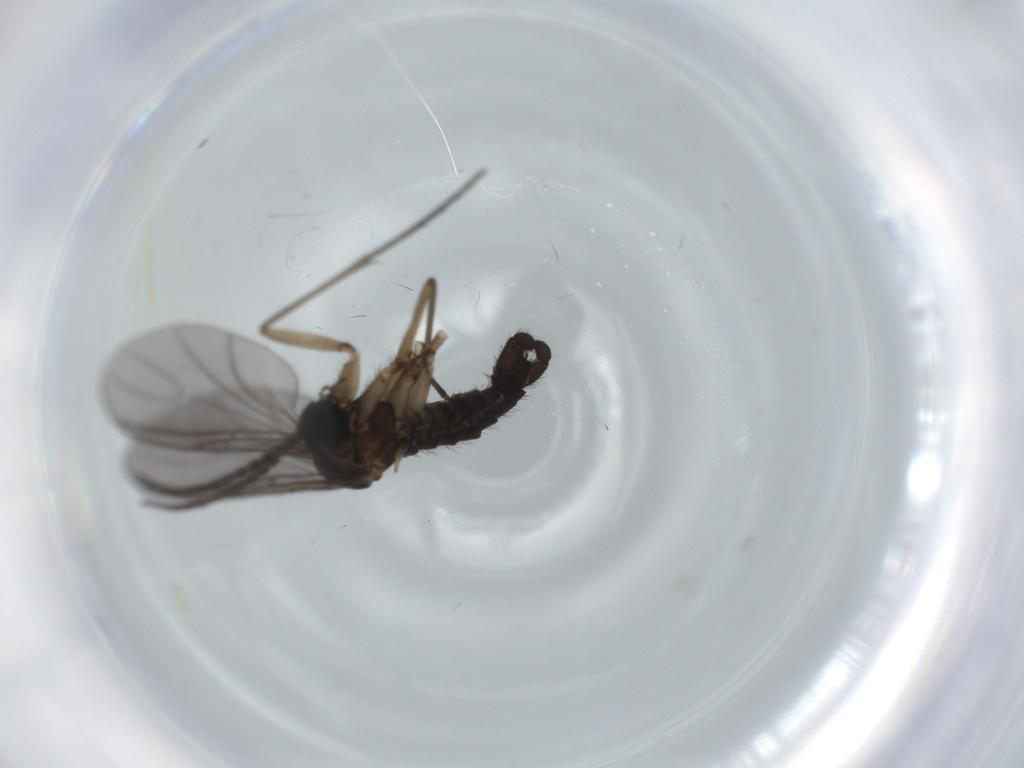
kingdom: Animalia
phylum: Arthropoda
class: Insecta
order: Diptera
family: Sciaridae
